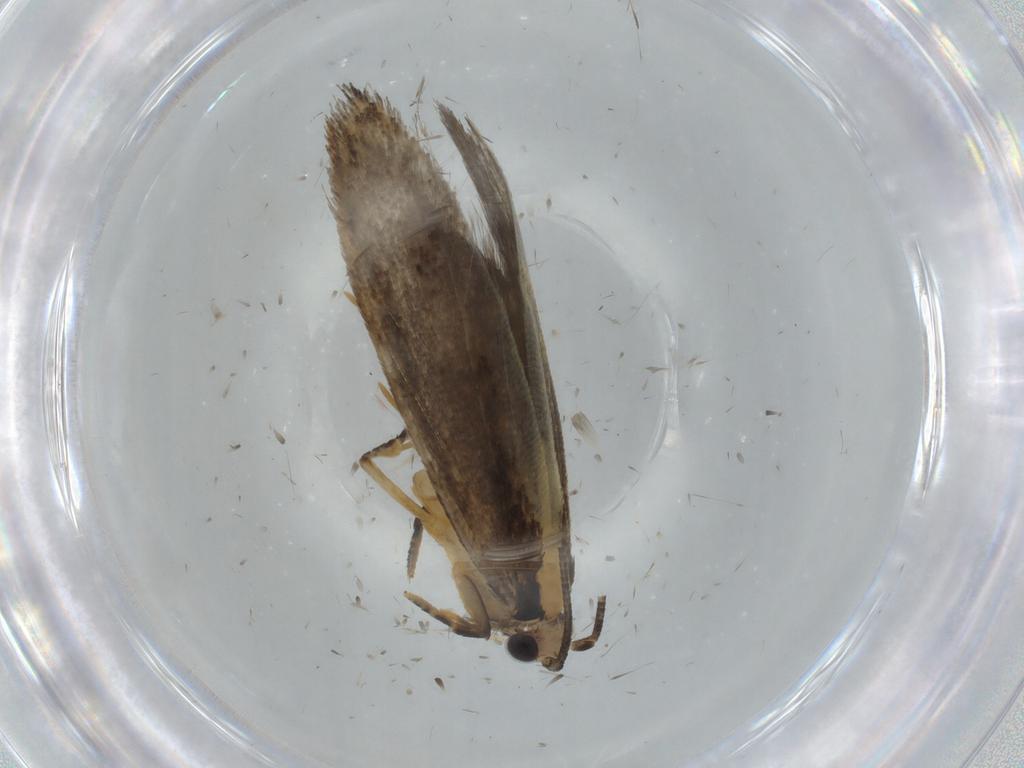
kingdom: Animalia
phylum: Arthropoda
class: Insecta
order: Lepidoptera
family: Tineidae
